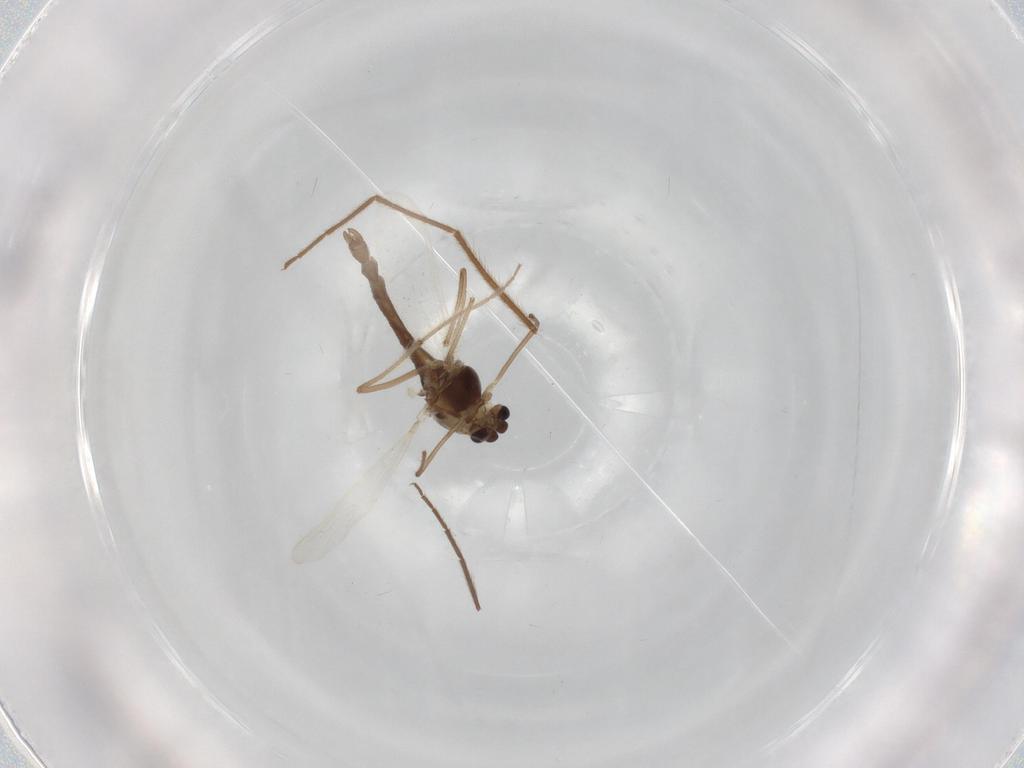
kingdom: Animalia
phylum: Arthropoda
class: Insecta
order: Diptera
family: Chironomidae
